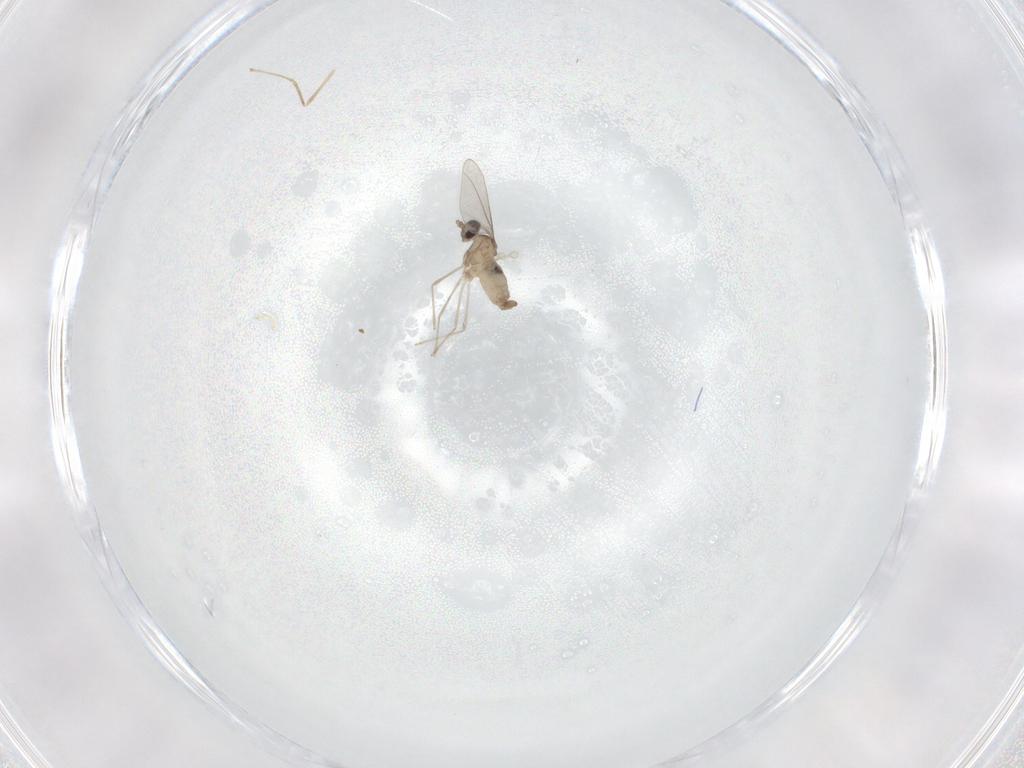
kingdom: Animalia
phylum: Arthropoda
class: Insecta
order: Diptera
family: Cecidomyiidae
